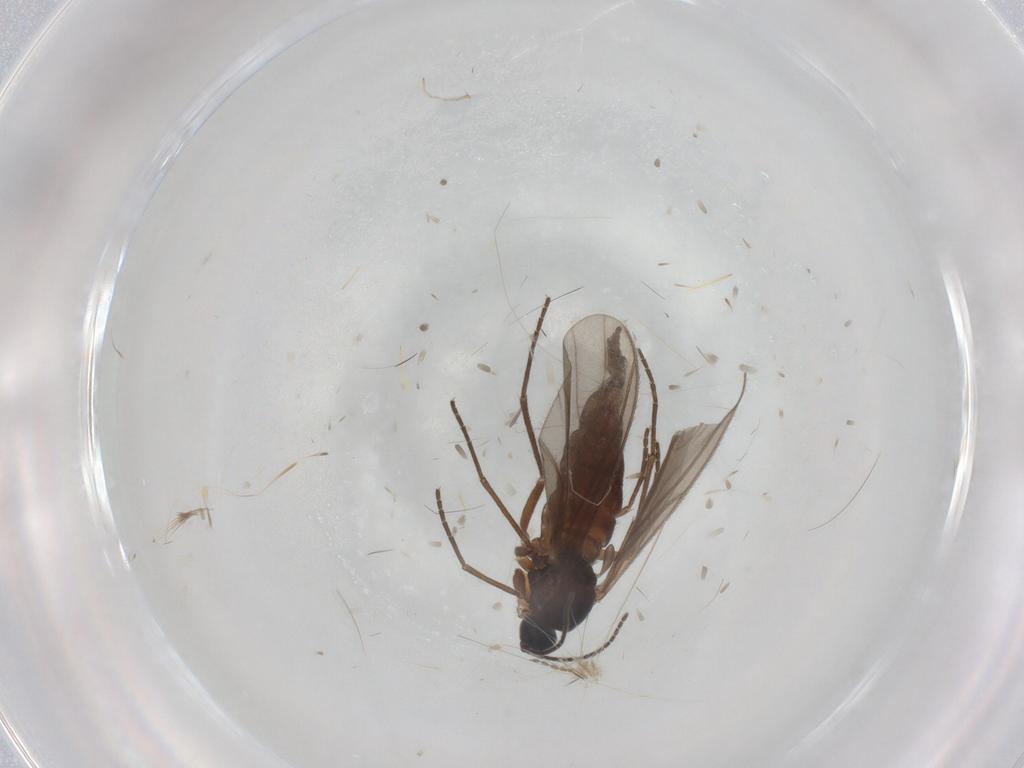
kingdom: Animalia
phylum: Arthropoda
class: Insecta
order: Diptera
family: Sciaridae
